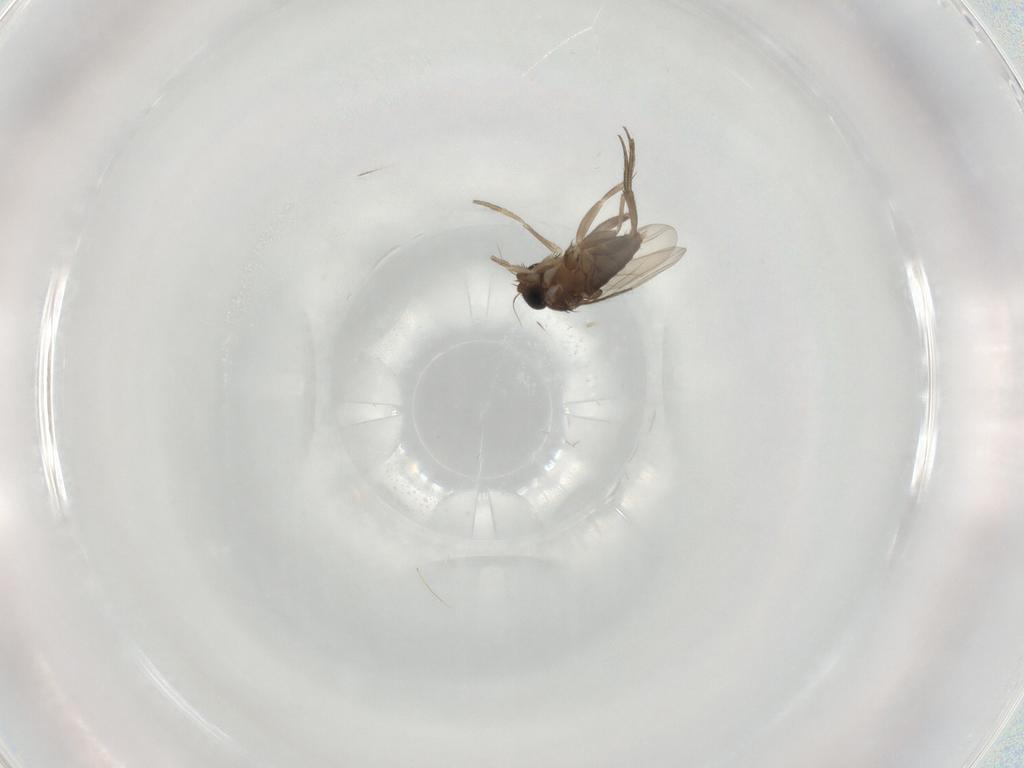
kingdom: Animalia
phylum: Arthropoda
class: Insecta
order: Diptera
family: Phoridae
